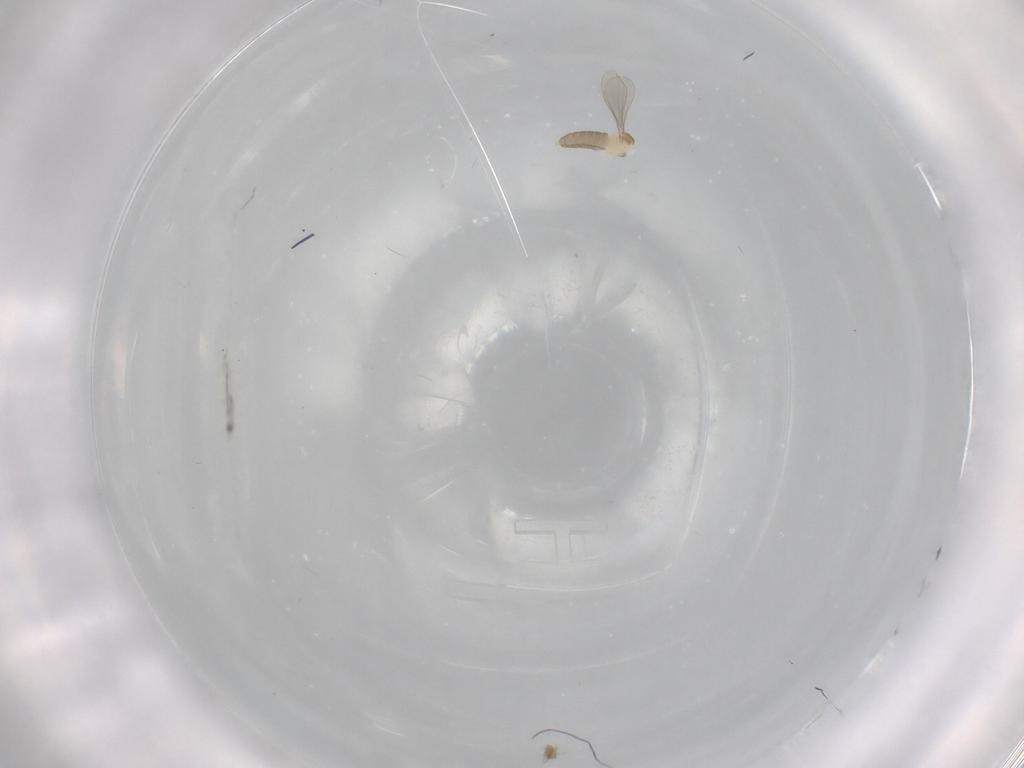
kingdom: Animalia
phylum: Arthropoda
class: Insecta
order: Diptera
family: Cecidomyiidae
